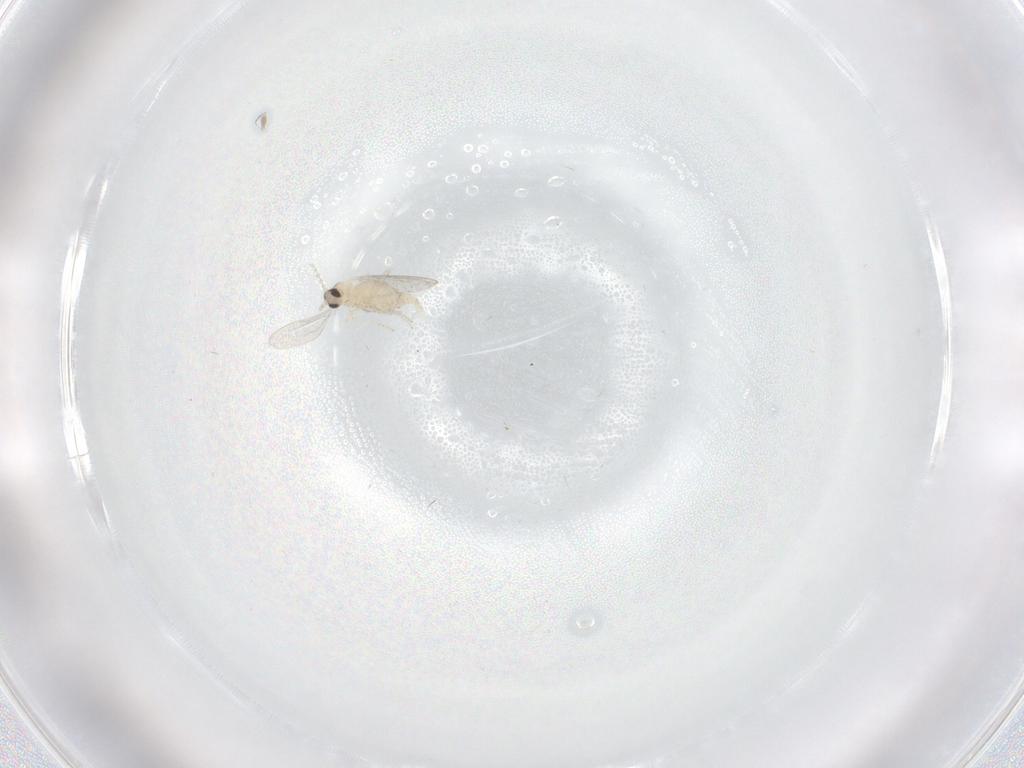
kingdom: Animalia
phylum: Arthropoda
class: Insecta
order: Diptera
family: Cecidomyiidae
